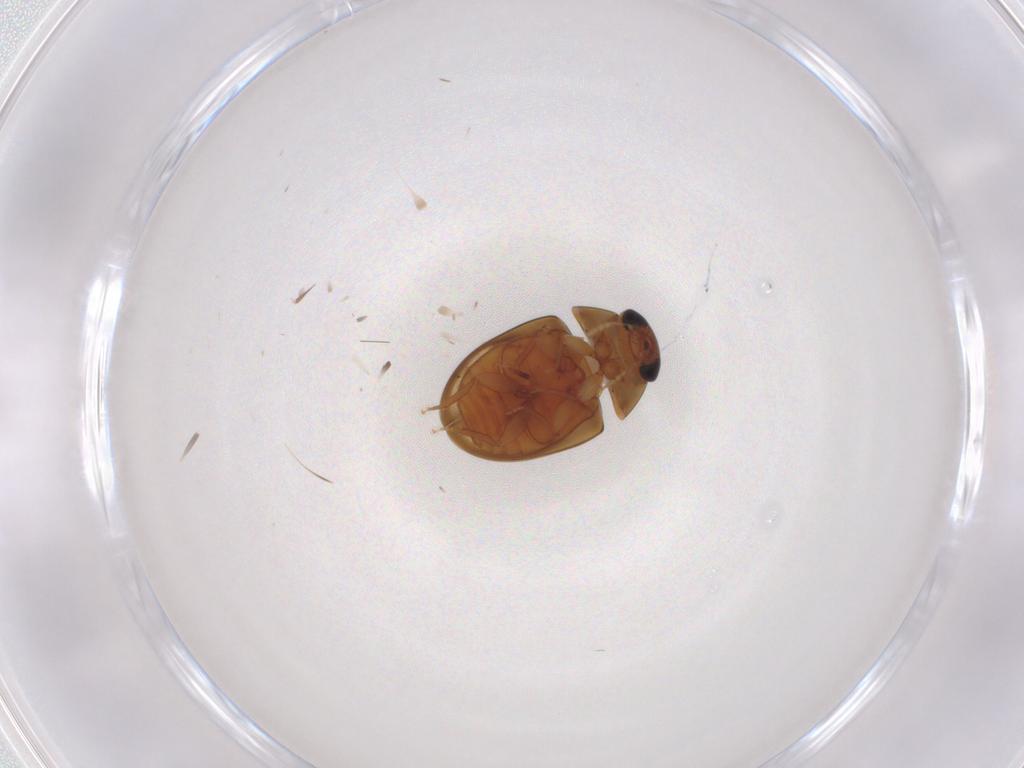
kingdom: Animalia
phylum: Arthropoda
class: Insecta
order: Coleoptera
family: Phalacridae
